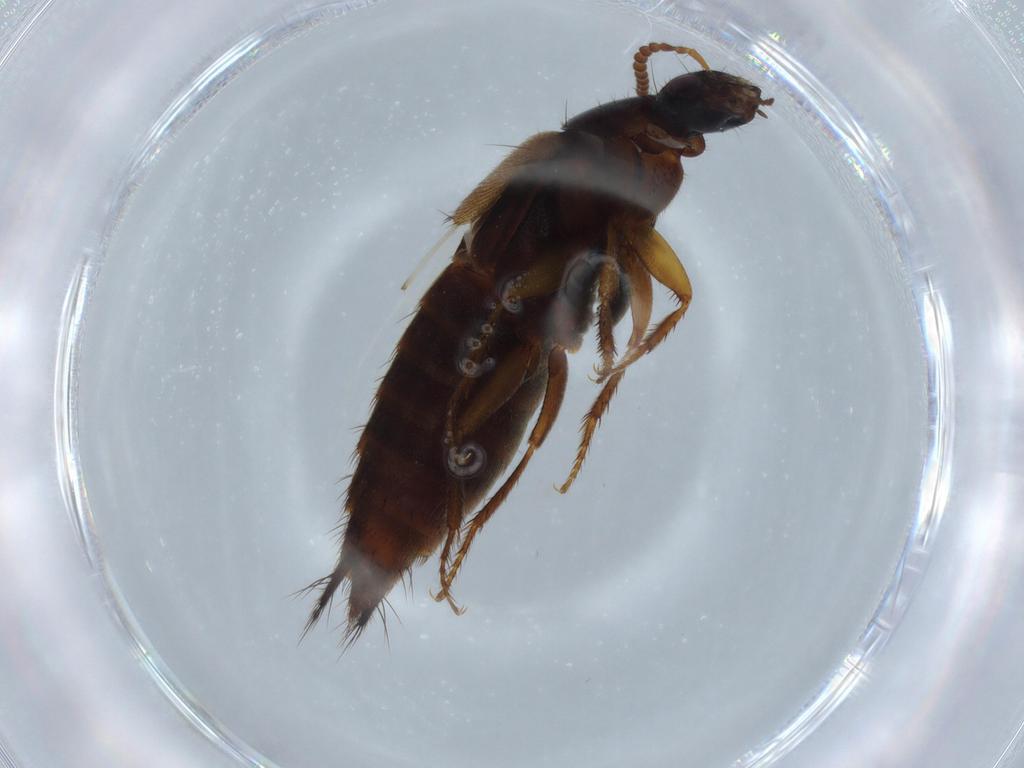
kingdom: Animalia
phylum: Arthropoda
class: Insecta
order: Coleoptera
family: Staphylinidae
